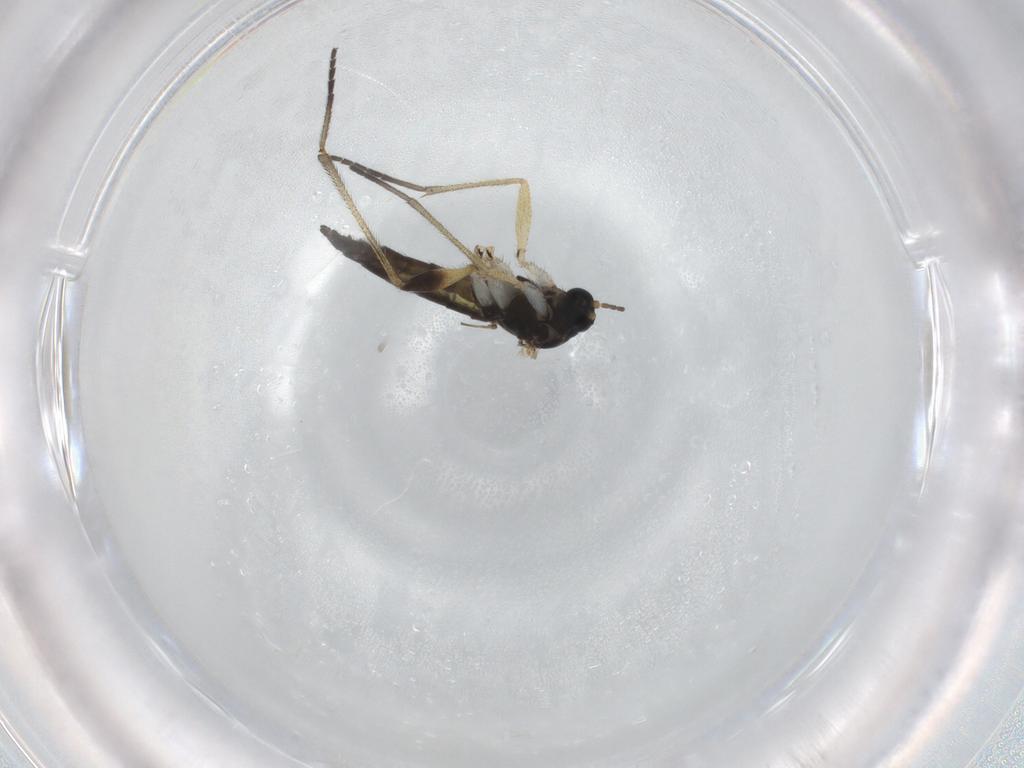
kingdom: Animalia
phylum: Arthropoda
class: Insecta
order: Diptera
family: Sciaridae
